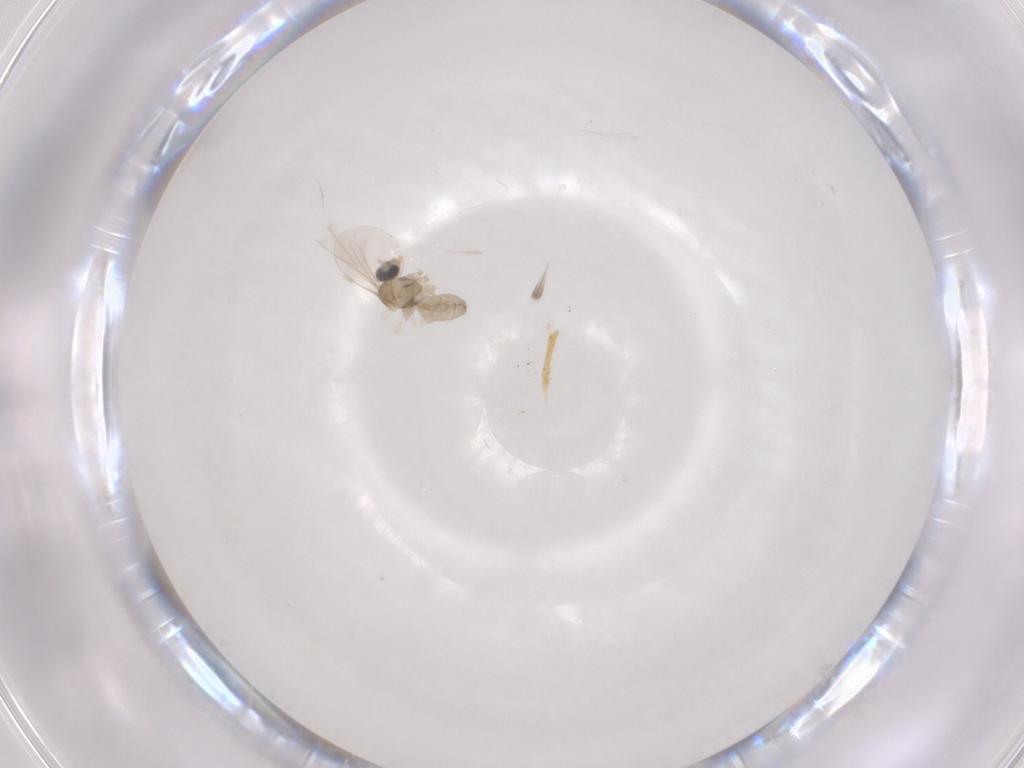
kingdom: Animalia
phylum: Arthropoda
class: Insecta
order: Diptera
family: Cecidomyiidae
